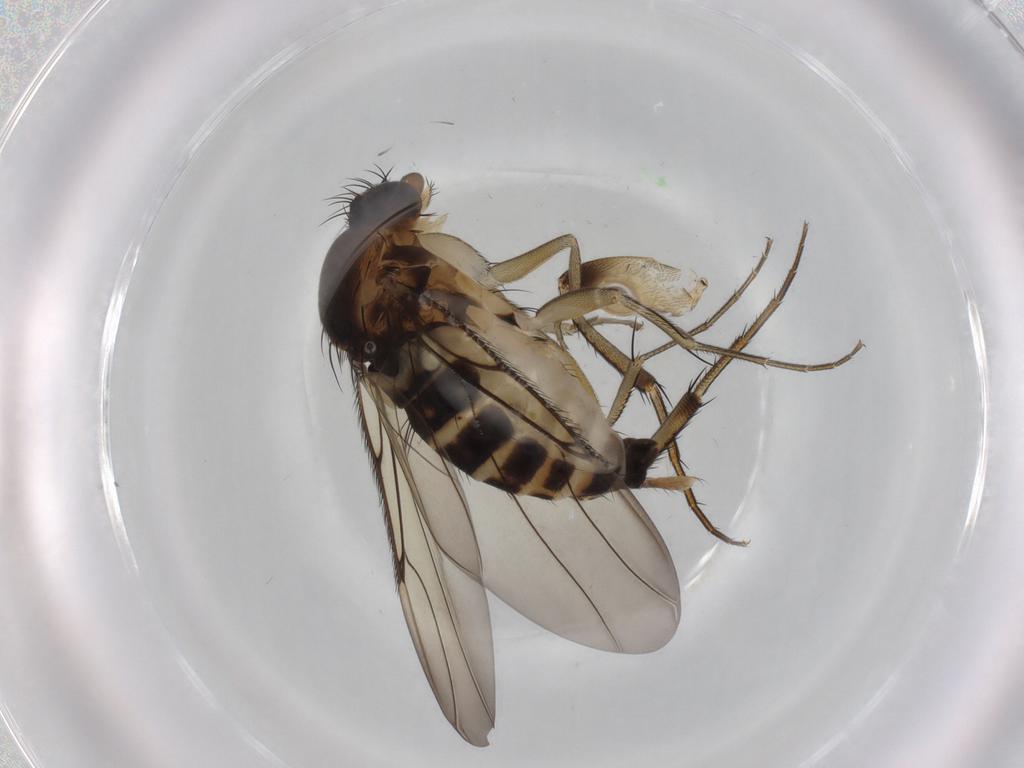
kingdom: Animalia
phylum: Arthropoda
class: Insecta
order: Diptera
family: Phoridae
